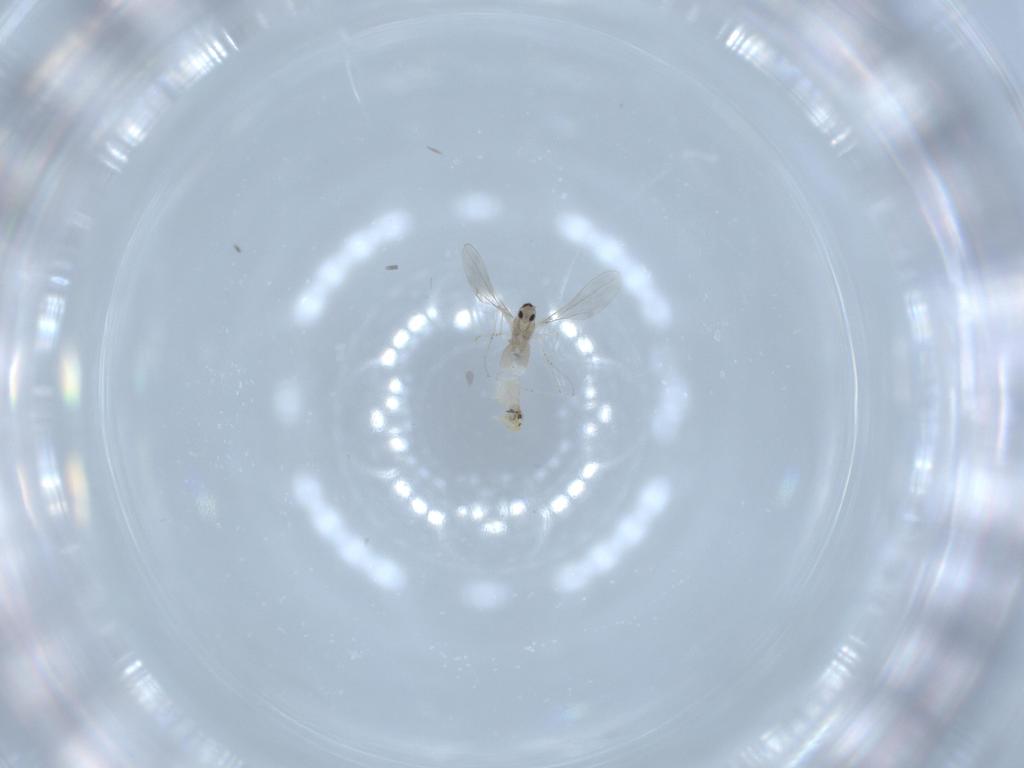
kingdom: Animalia
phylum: Arthropoda
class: Insecta
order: Diptera
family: Cecidomyiidae
